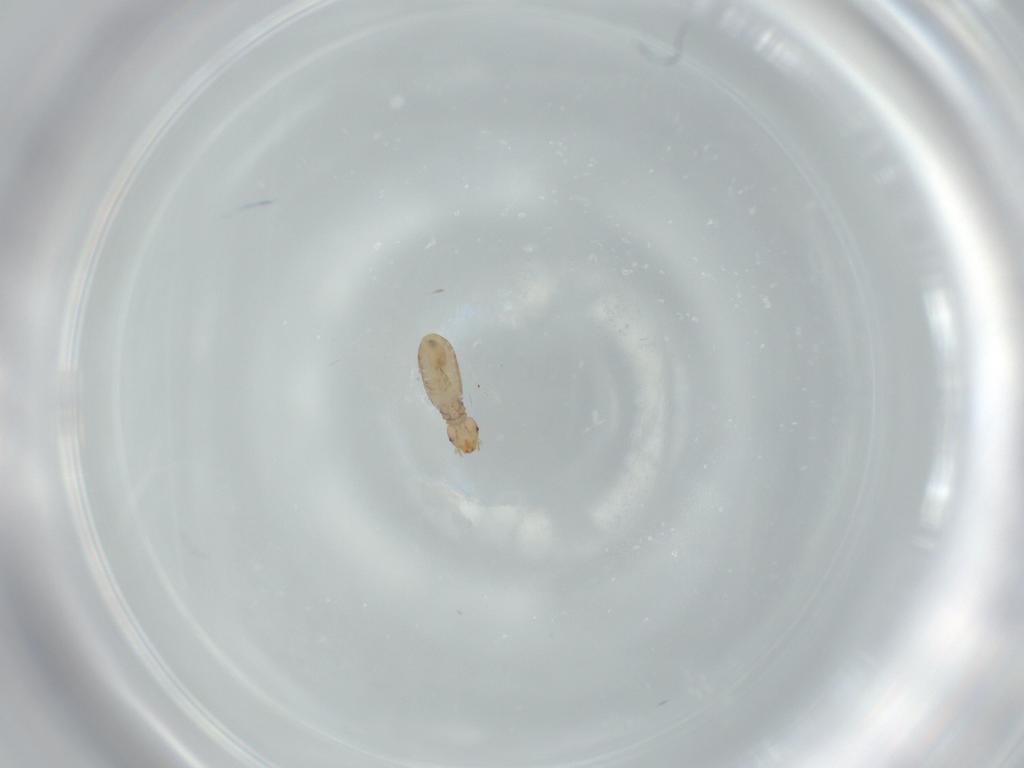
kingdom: Animalia
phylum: Arthropoda
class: Insecta
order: Psocodea
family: Liposcelididae
